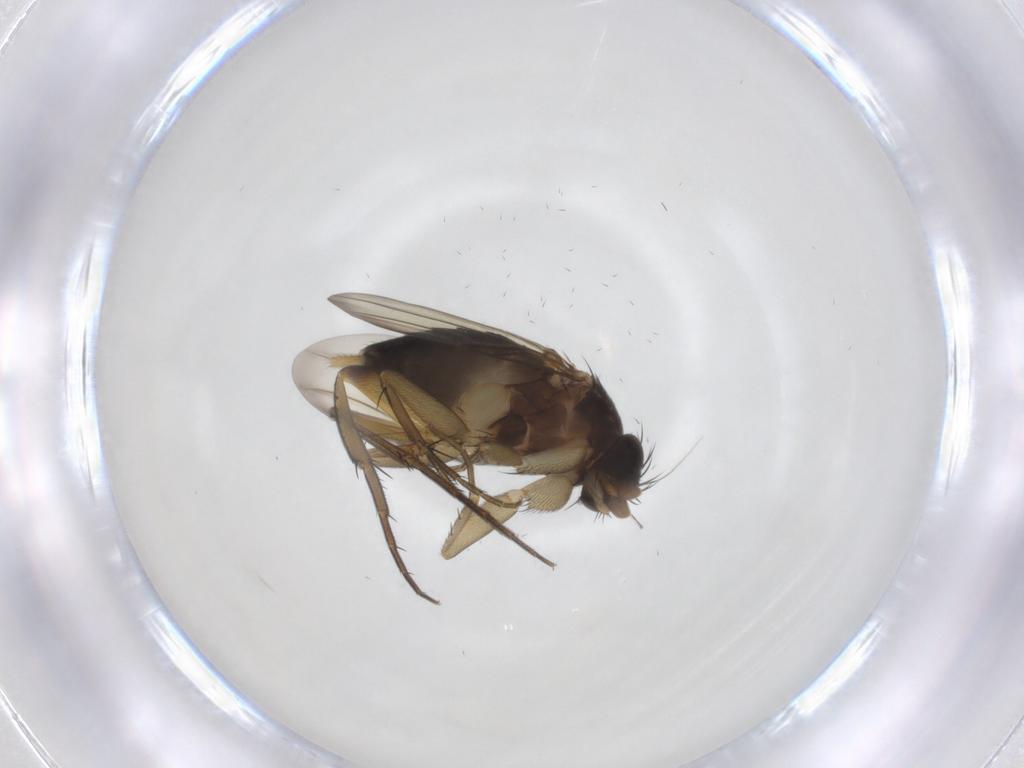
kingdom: Animalia
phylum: Arthropoda
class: Insecta
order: Diptera
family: Phoridae
